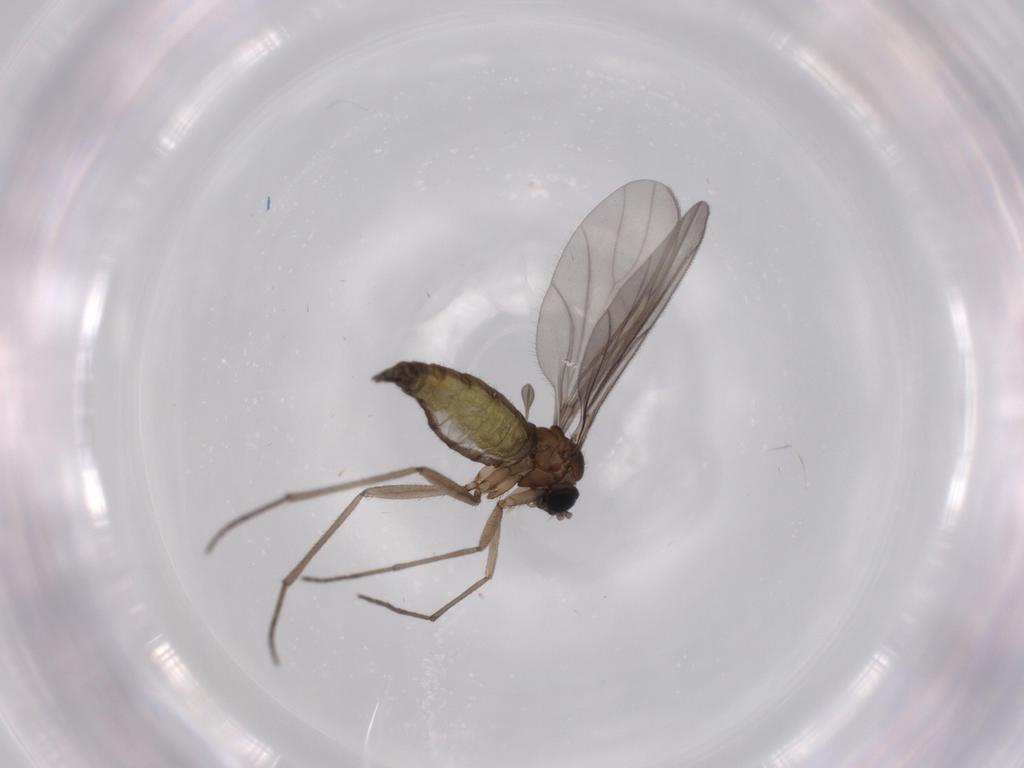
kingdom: Animalia
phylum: Arthropoda
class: Insecta
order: Diptera
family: Sciaridae
